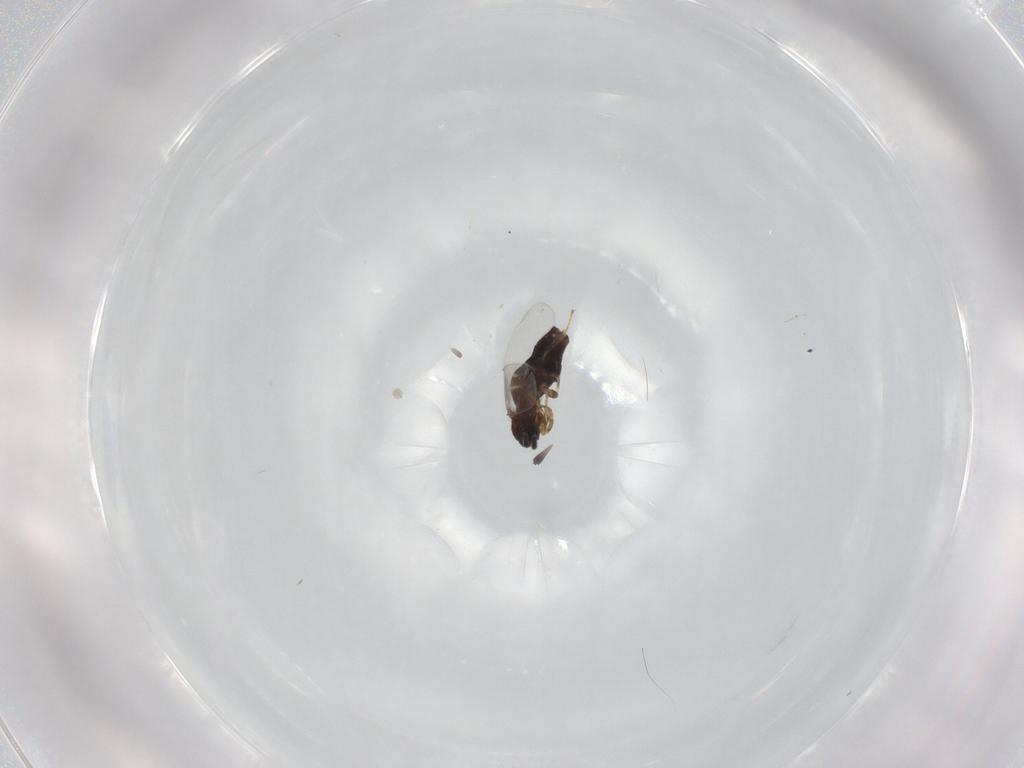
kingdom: Animalia
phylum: Arthropoda
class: Insecta
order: Diptera
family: Scatopsidae
